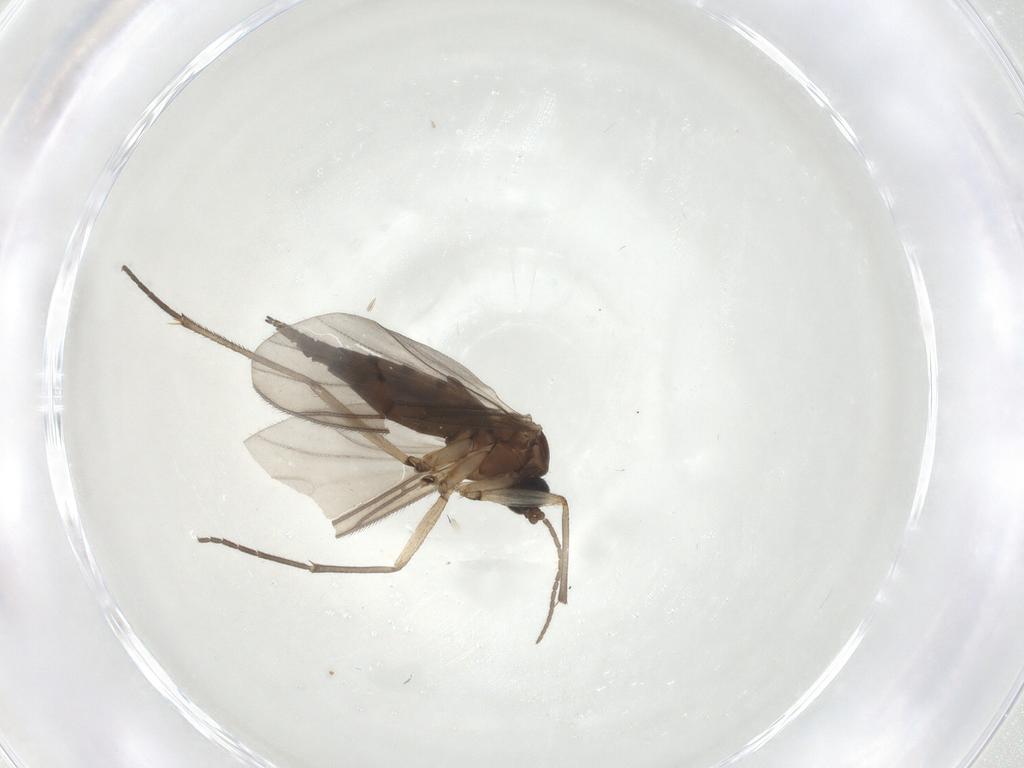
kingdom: Animalia
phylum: Arthropoda
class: Insecta
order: Diptera
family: Sciaridae
